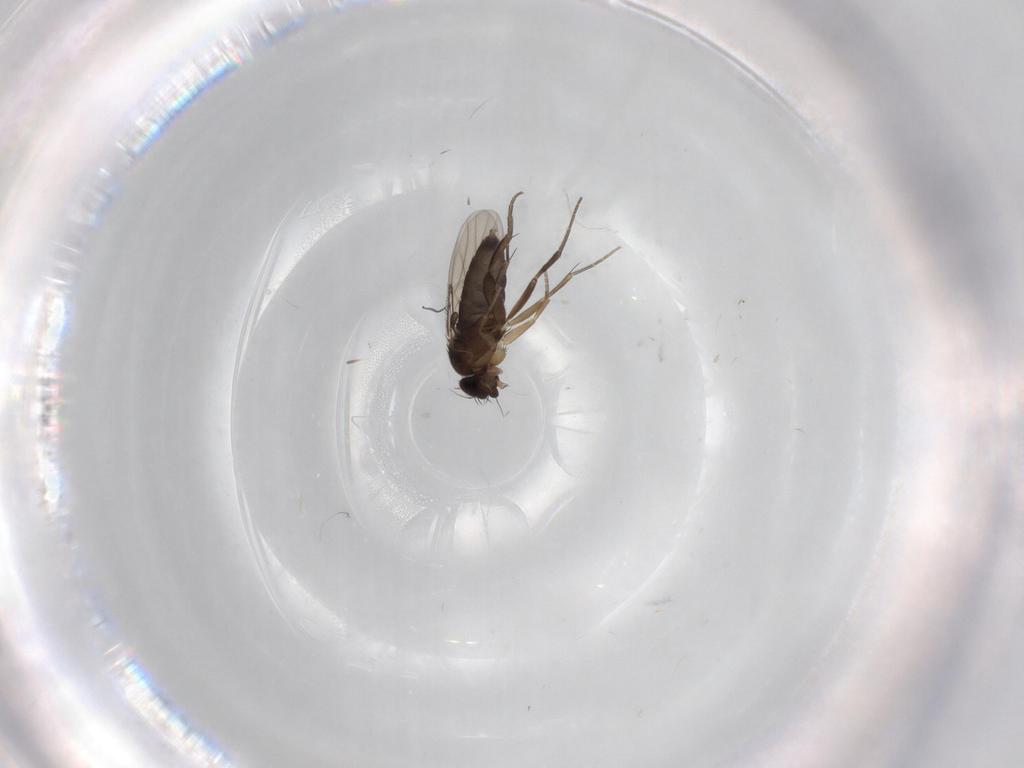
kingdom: Animalia
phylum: Arthropoda
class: Insecta
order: Diptera
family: Phoridae
